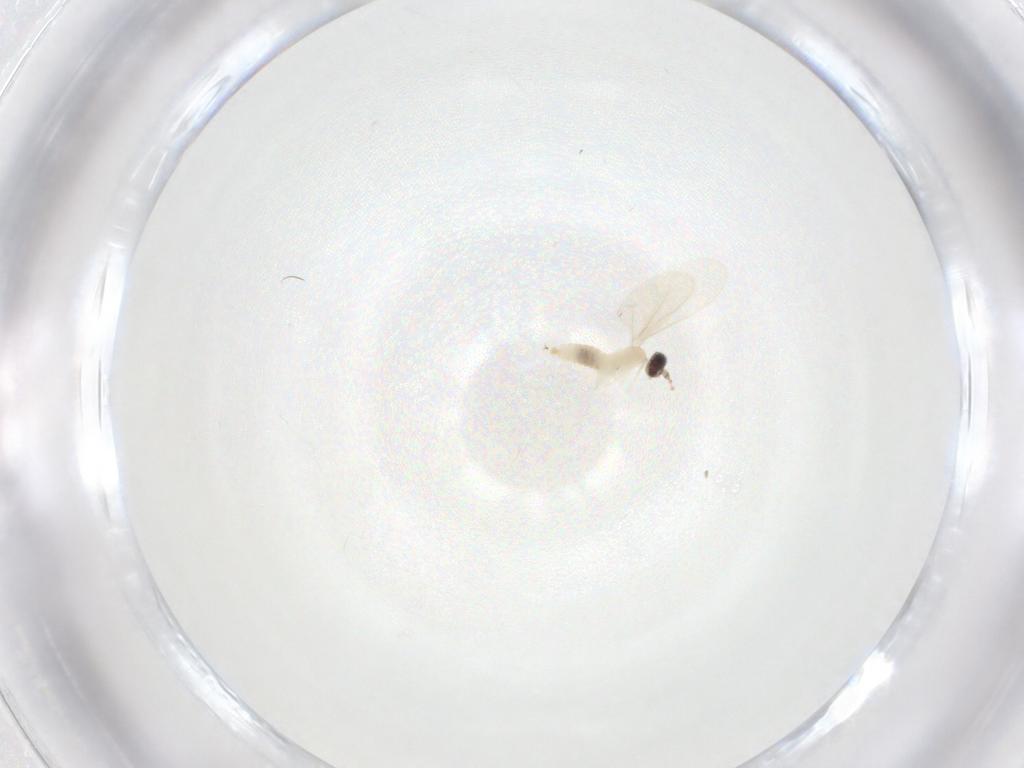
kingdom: Animalia
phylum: Arthropoda
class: Insecta
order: Diptera
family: Cecidomyiidae
